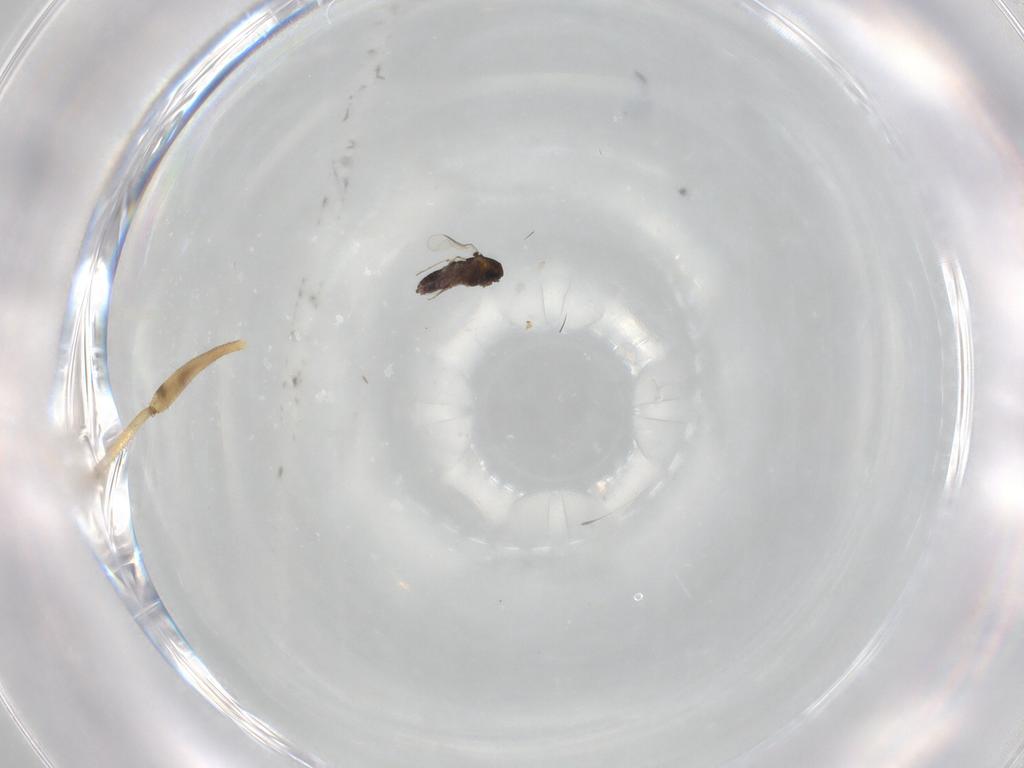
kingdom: Animalia
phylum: Arthropoda
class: Insecta
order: Diptera
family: Chironomidae
